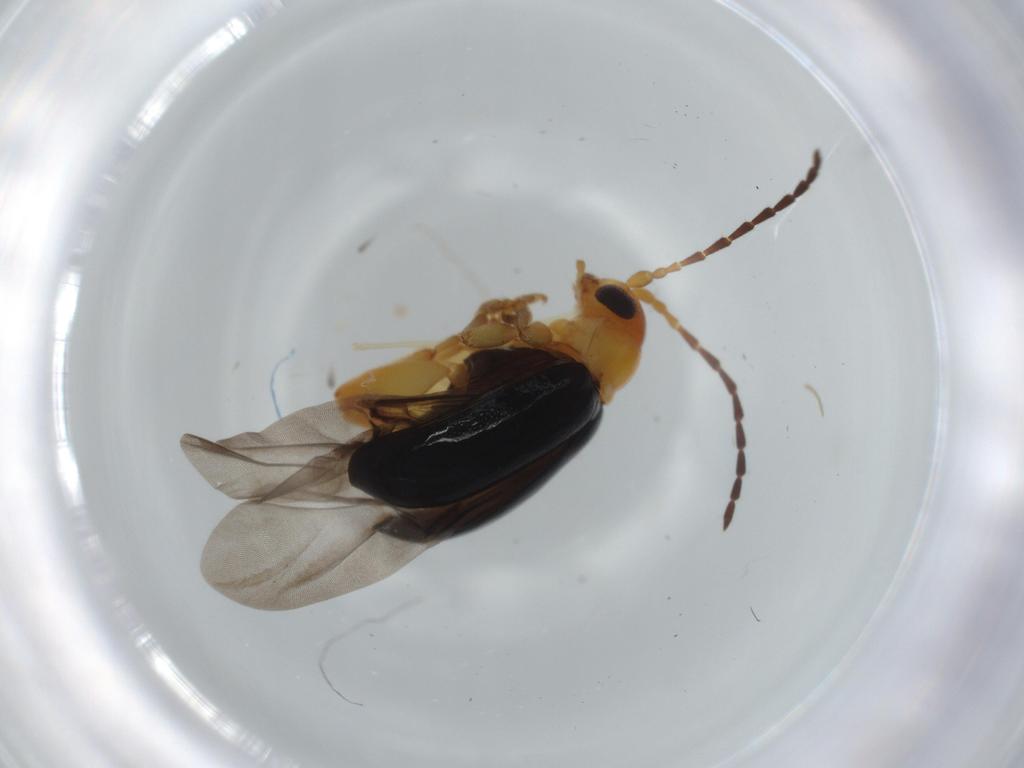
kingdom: Animalia
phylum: Arthropoda
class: Insecta
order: Coleoptera
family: Chrysomelidae
